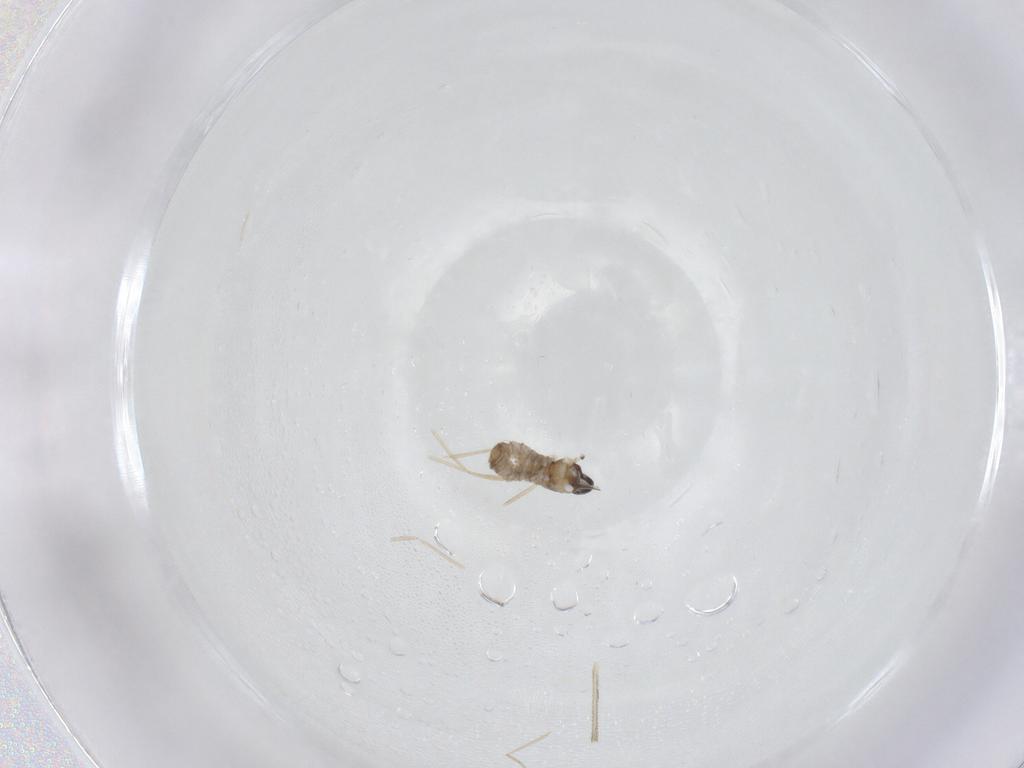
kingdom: Animalia
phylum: Arthropoda
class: Insecta
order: Diptera
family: Cecidomyiidae
